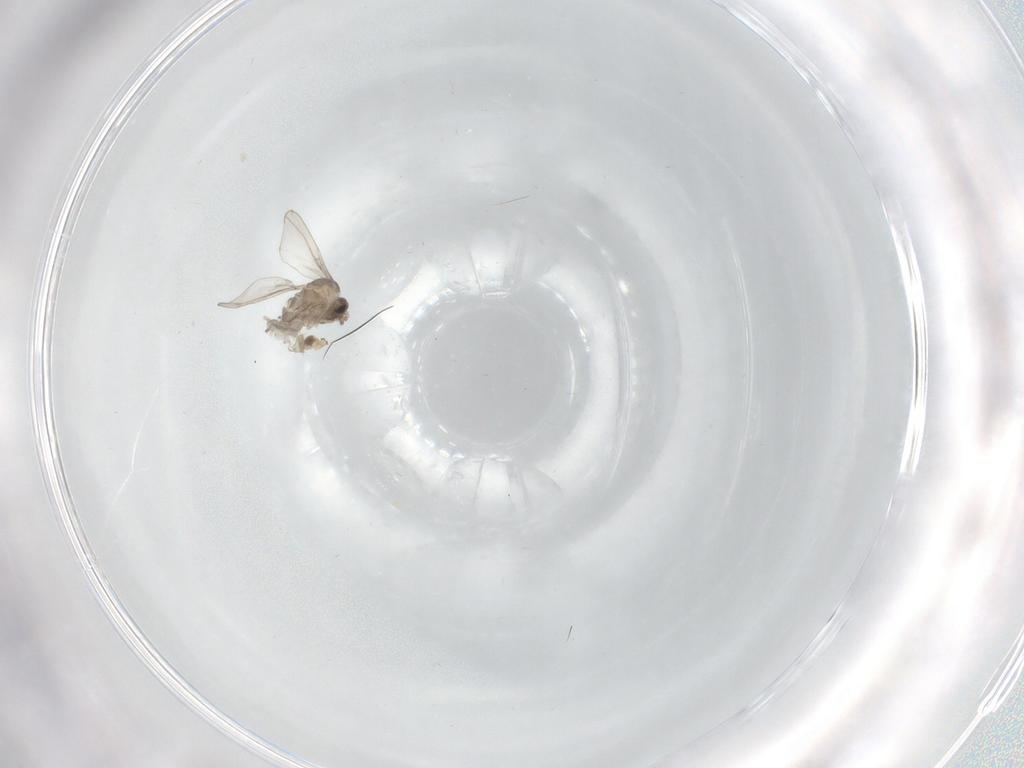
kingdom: Animalia
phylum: Arthropoda
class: Insecta
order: Diptera
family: Cecidomyiidae
